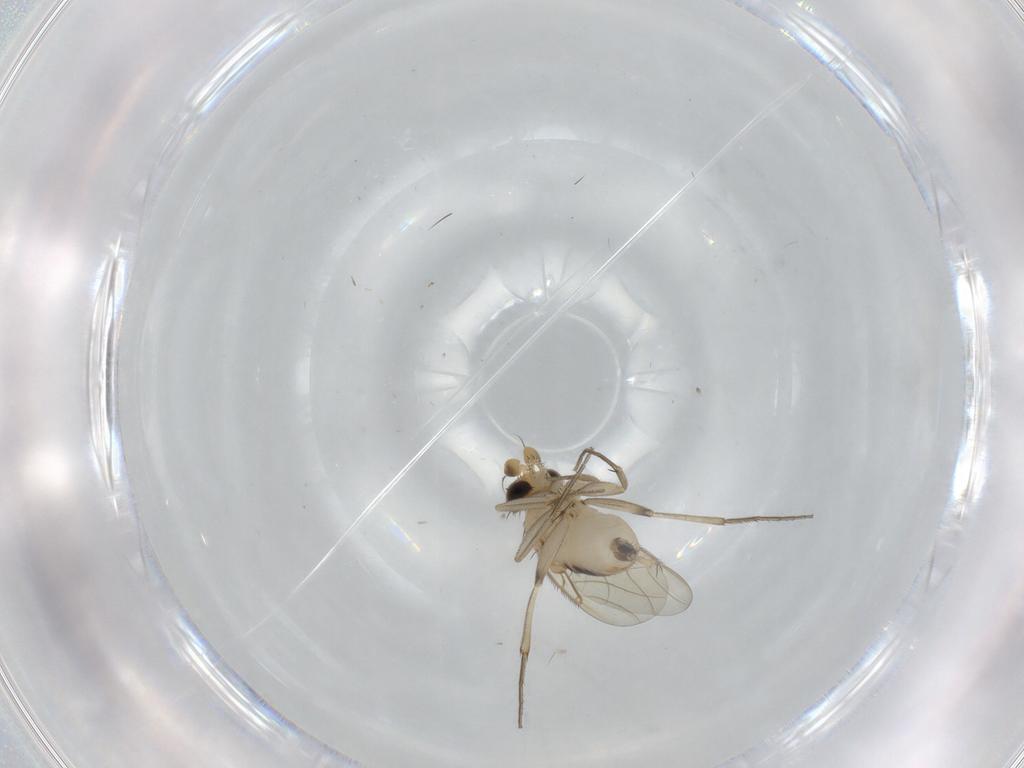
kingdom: Animalia
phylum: Arthropoda
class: Insecta
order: Diptera
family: Phoridae
